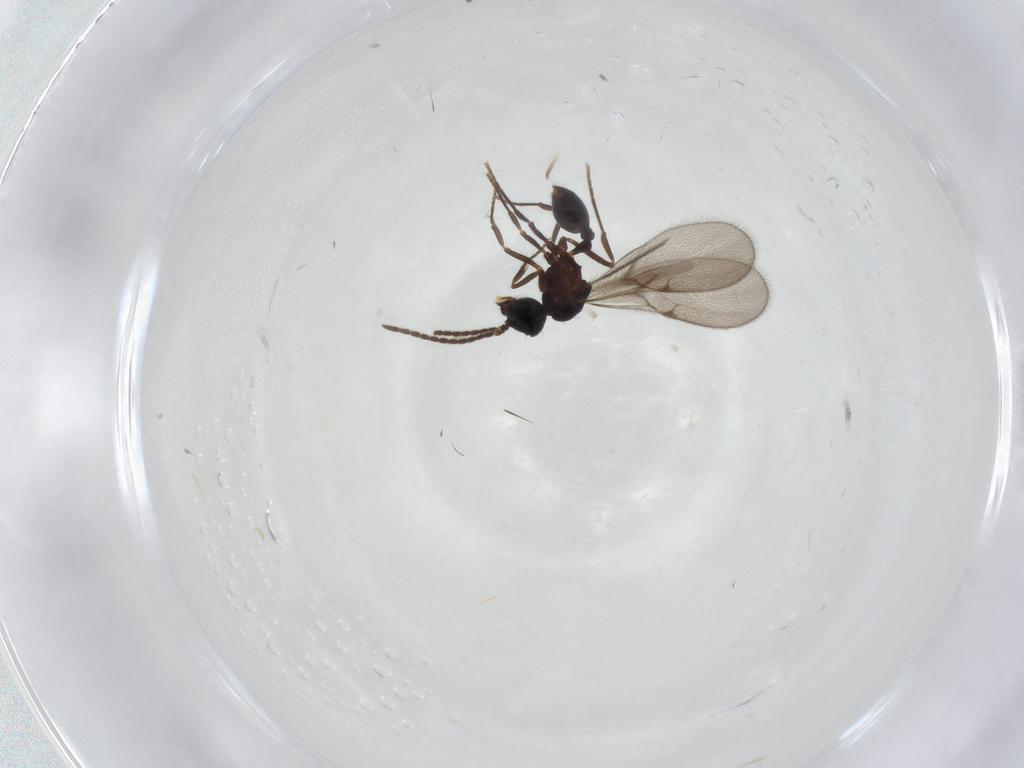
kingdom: Animalia
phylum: Arthropoda
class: Insecta
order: Hymenoptera
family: Formicidae
